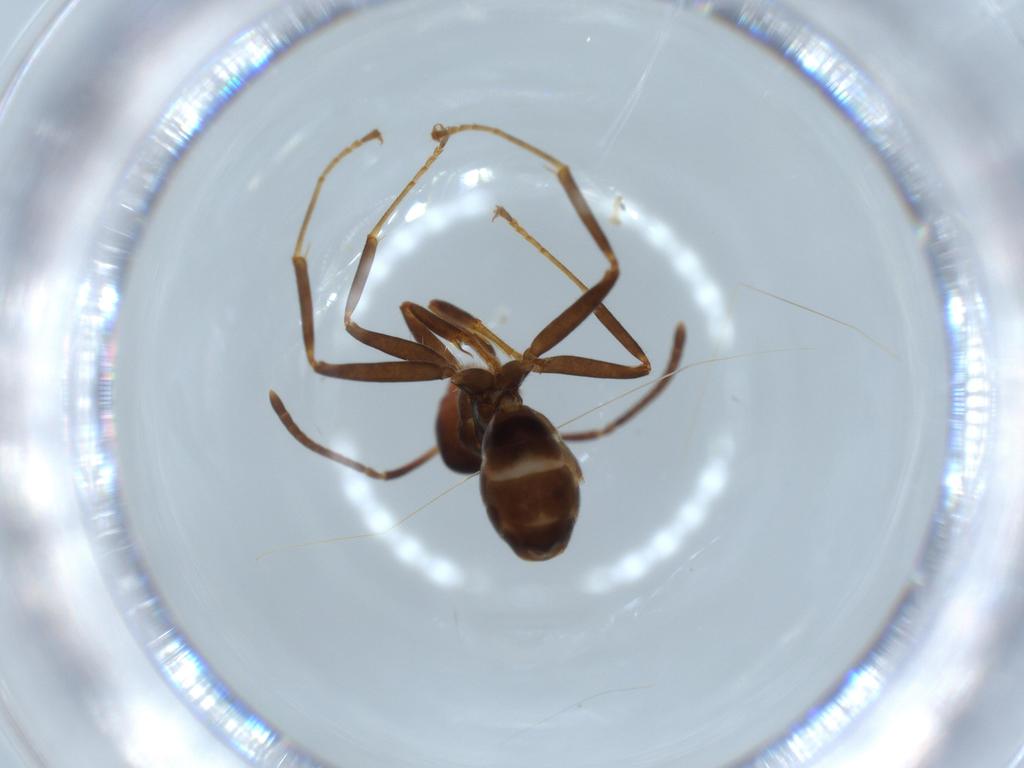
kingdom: Animalia
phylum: Arthropoda
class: Insecta
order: Hymenoptera
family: Formicidae
